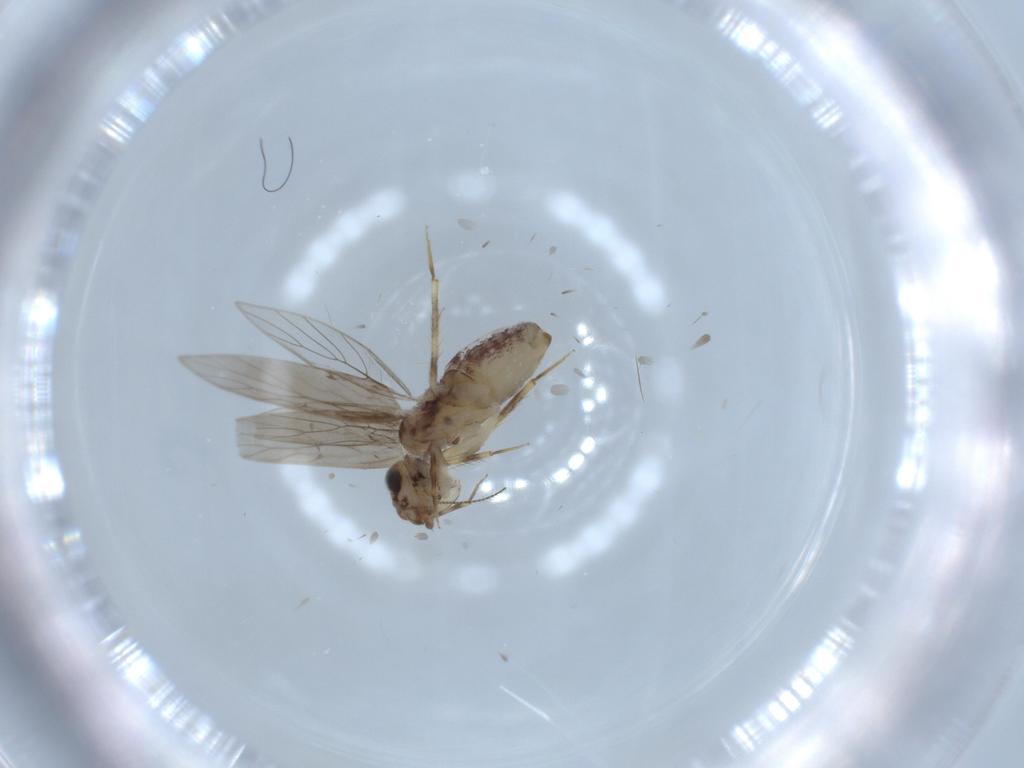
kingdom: Animalia
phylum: Arthropoda
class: Insecta
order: Psocodea
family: Lepidopsocidae
